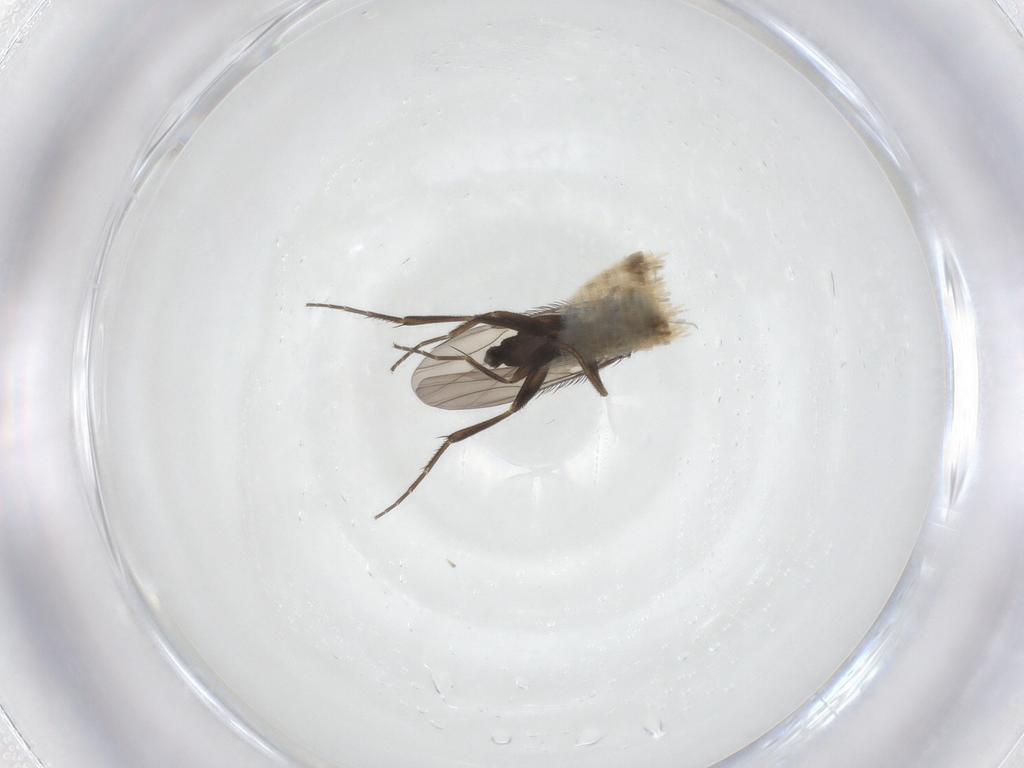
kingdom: Animalia
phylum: Arthropoda
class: Insecta
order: Diptera
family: Phoridae
